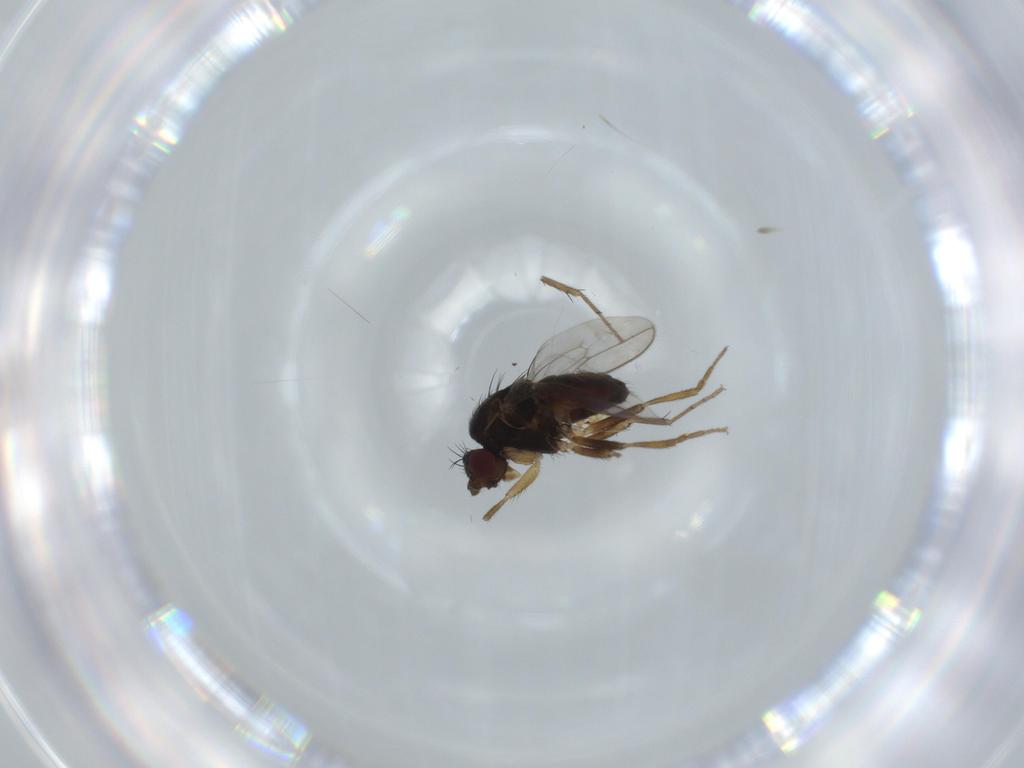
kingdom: Animalia
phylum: Arthropoda
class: Insecta
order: Diptera
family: Sphaeroceridae
